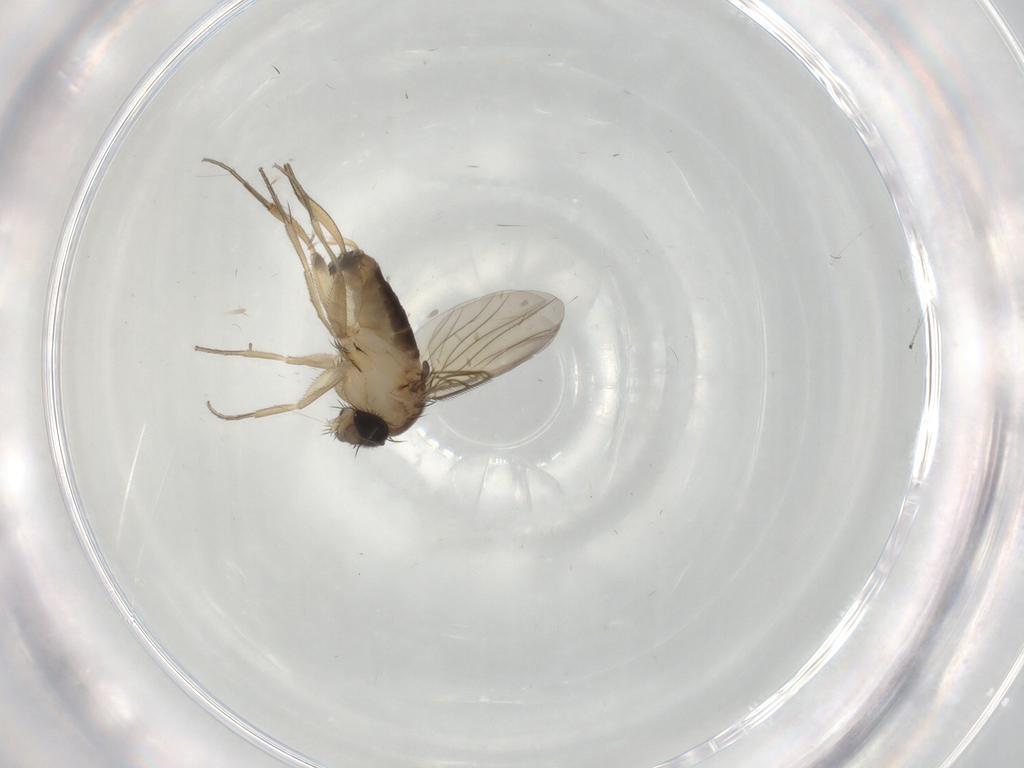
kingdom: Animalia
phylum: Arthropoda
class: Insecta
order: Diptera
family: Phoridae
